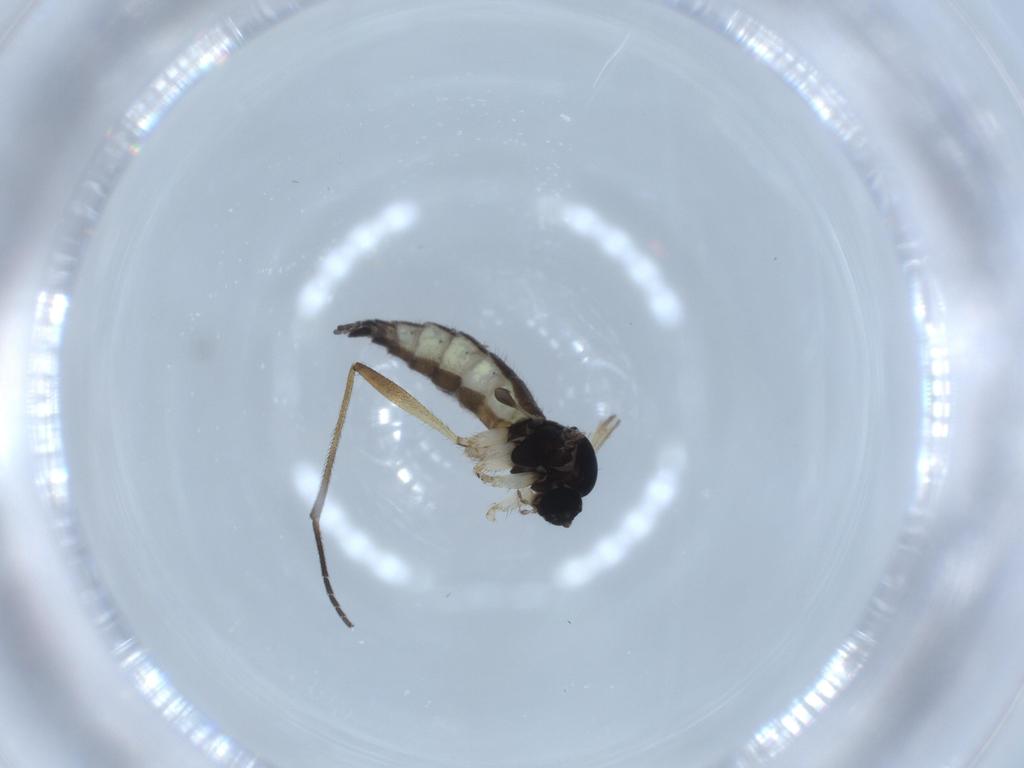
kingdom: Animalia
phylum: Arthropoda
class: Insecta
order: Diptera
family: Sciaridae
